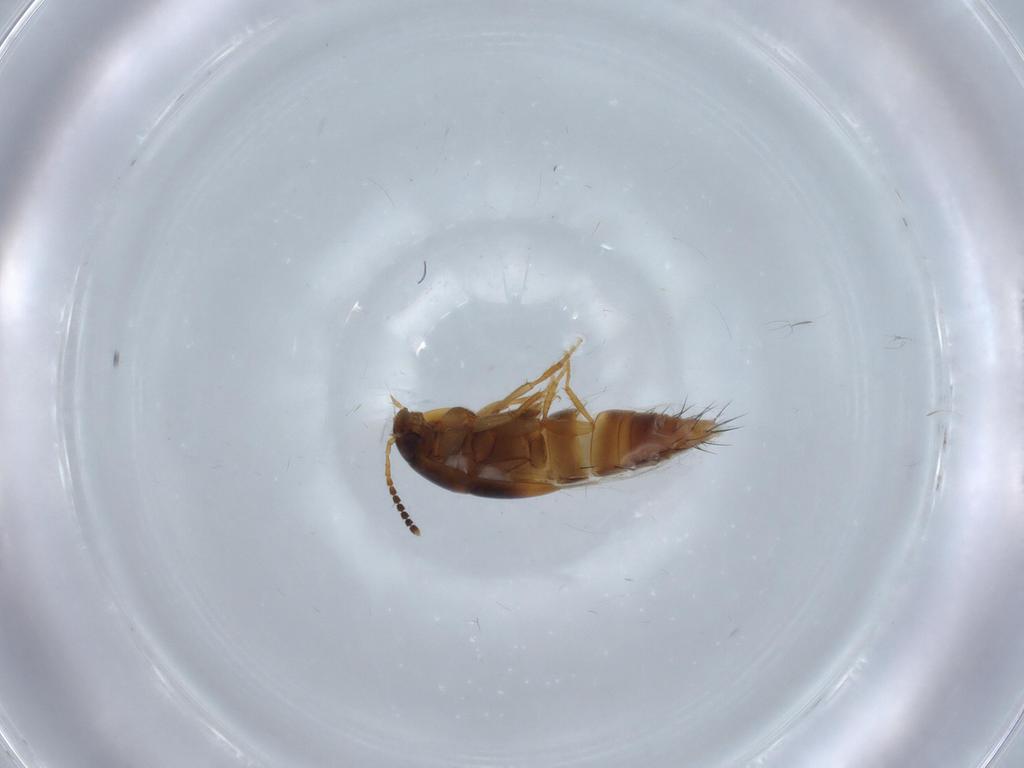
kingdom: Animalia
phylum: Arthropoda
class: Insecta
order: Coleoptera
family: Staphylinidae
